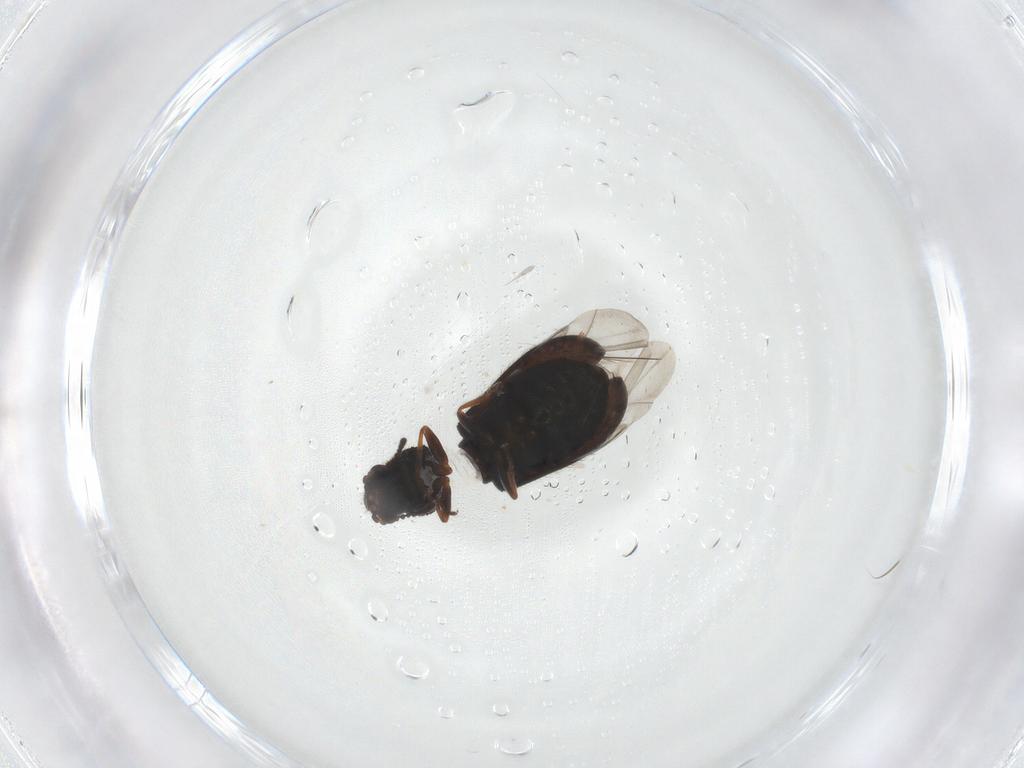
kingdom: Animalia
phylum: Arthropoda
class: Insecta
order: Coleoptera
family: Melyridae
